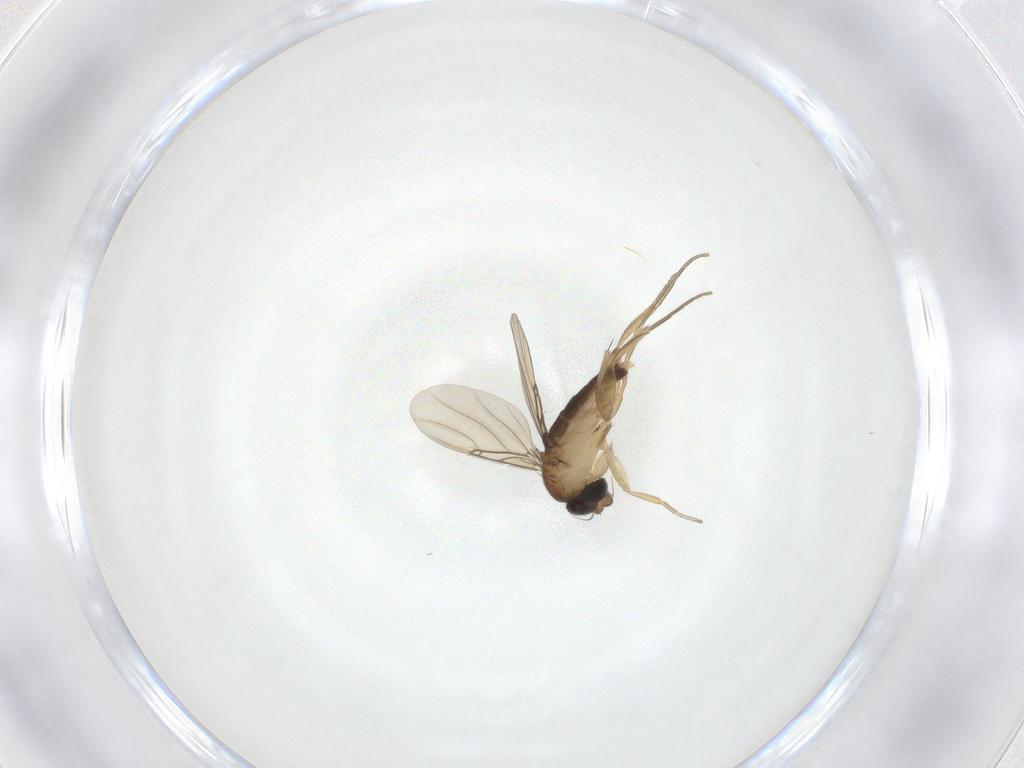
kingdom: Animalia
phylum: Arthropoda
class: Insecta
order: Diptera
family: Phoridae
